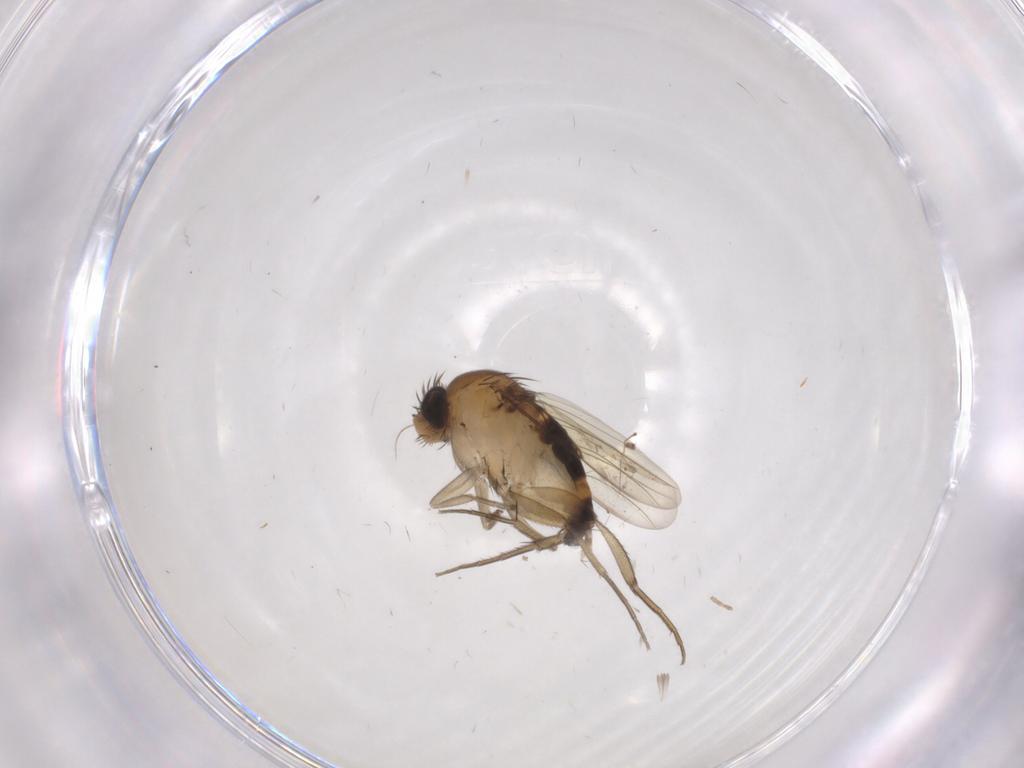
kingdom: Animalia
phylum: Arthropoda
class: Insecta
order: Diptera
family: Phoridae
